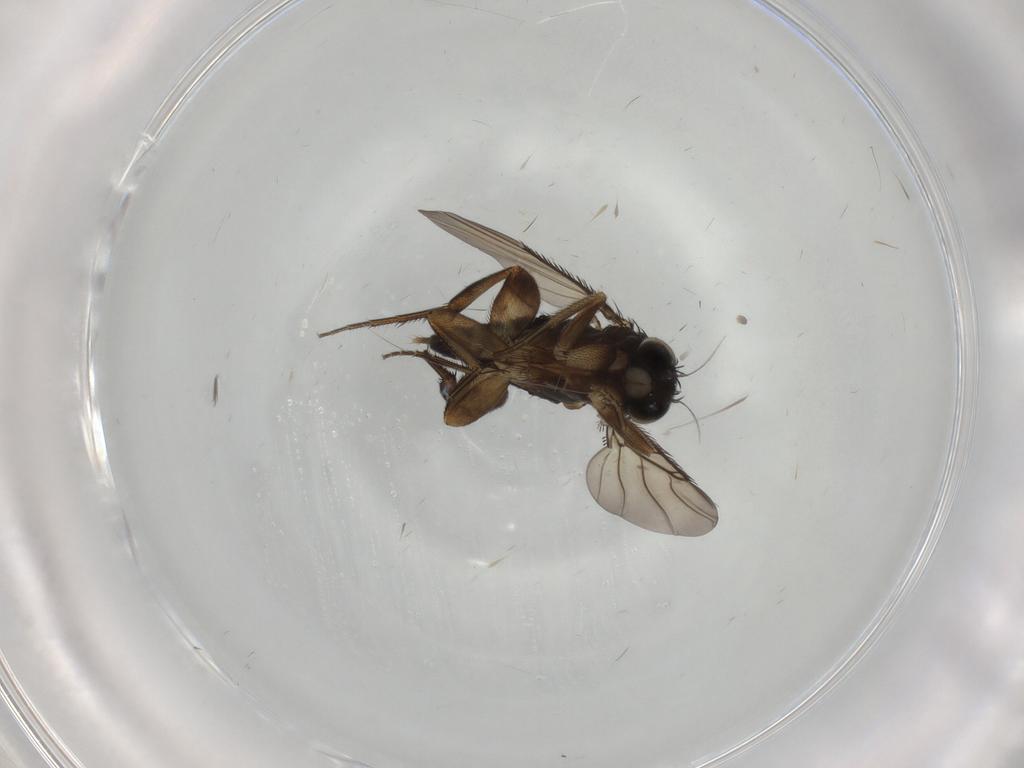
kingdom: Animalia
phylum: Arthropoda
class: Insecta
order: Diptera
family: Phoridae
